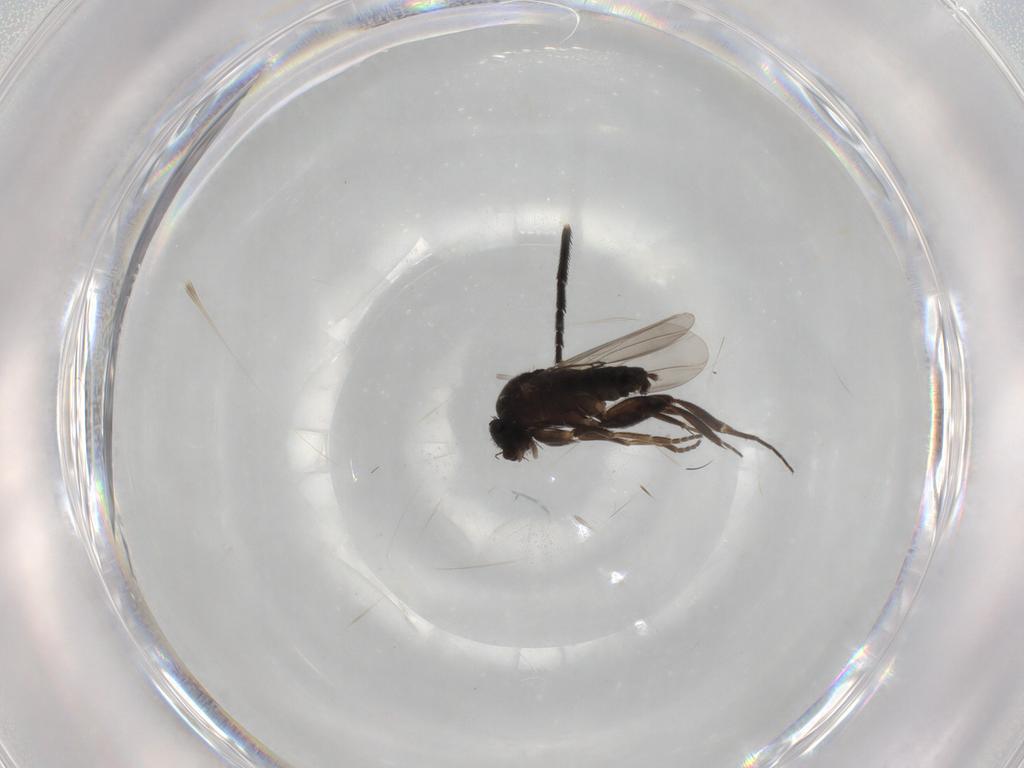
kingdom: Animalia
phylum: Arthropoda
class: Insecta
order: Diptera
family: Phoridae
